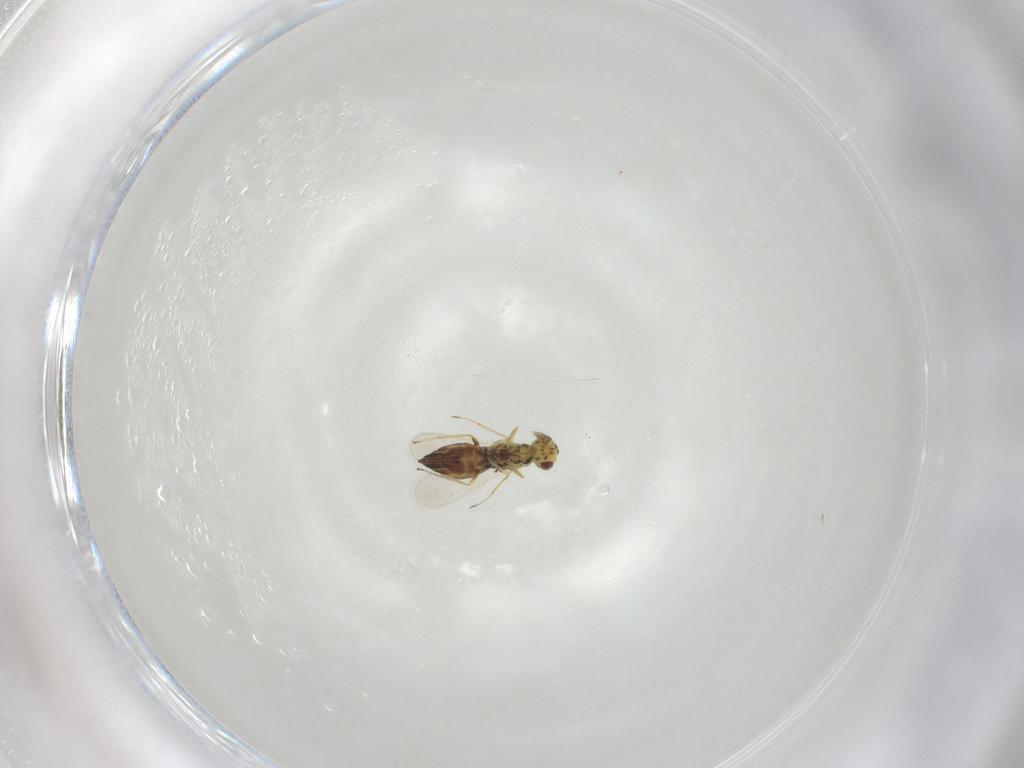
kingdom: Animalia
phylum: Arthropoda
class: Insecta
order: Hymenoptera
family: Eulophidae
